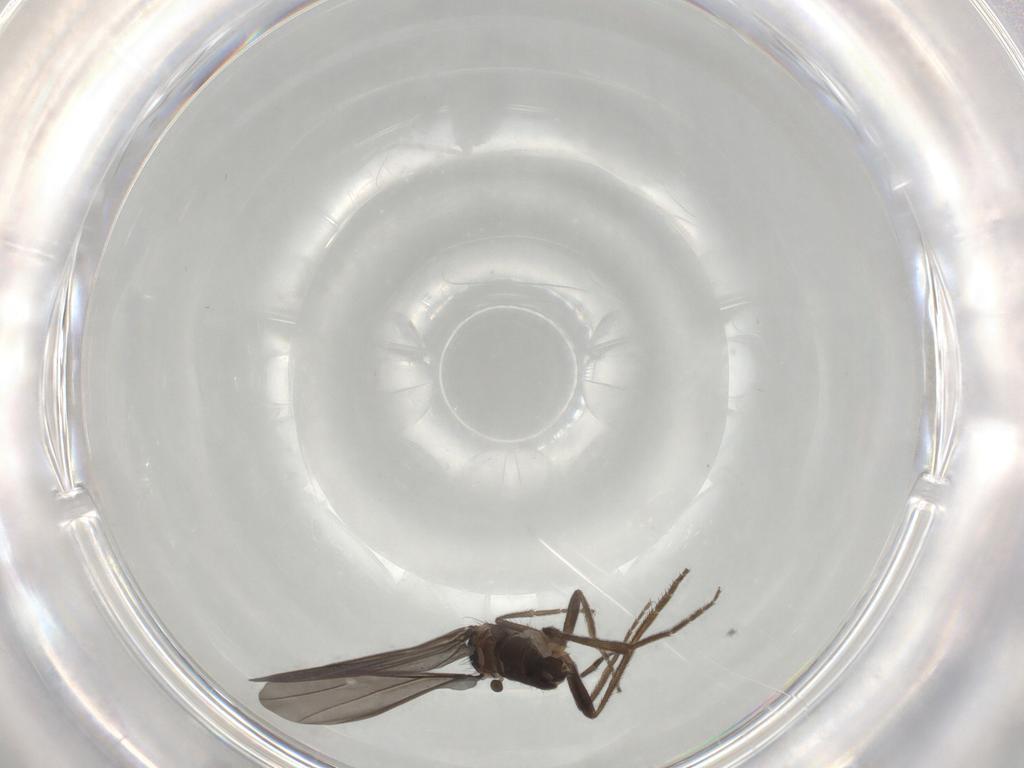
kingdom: Animalia
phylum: Arthropoda
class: Insecta
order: Diptera
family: Phoridae
